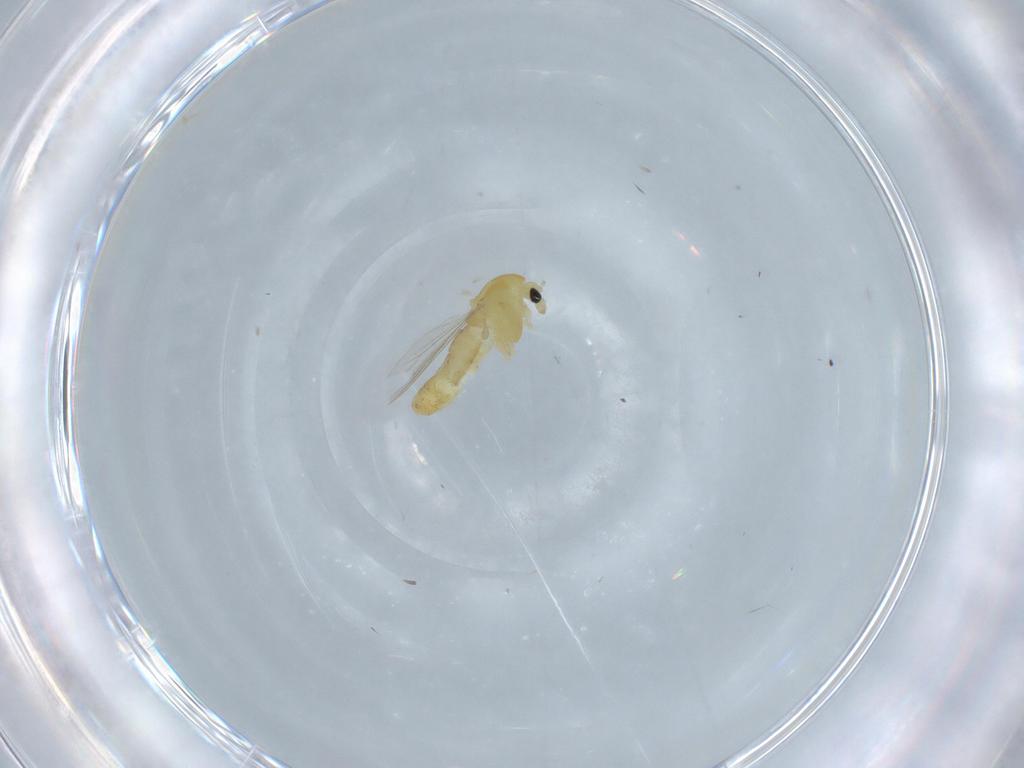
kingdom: Animalia
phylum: Arthropoda
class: Insecta
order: Diptera
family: Chironomidae
